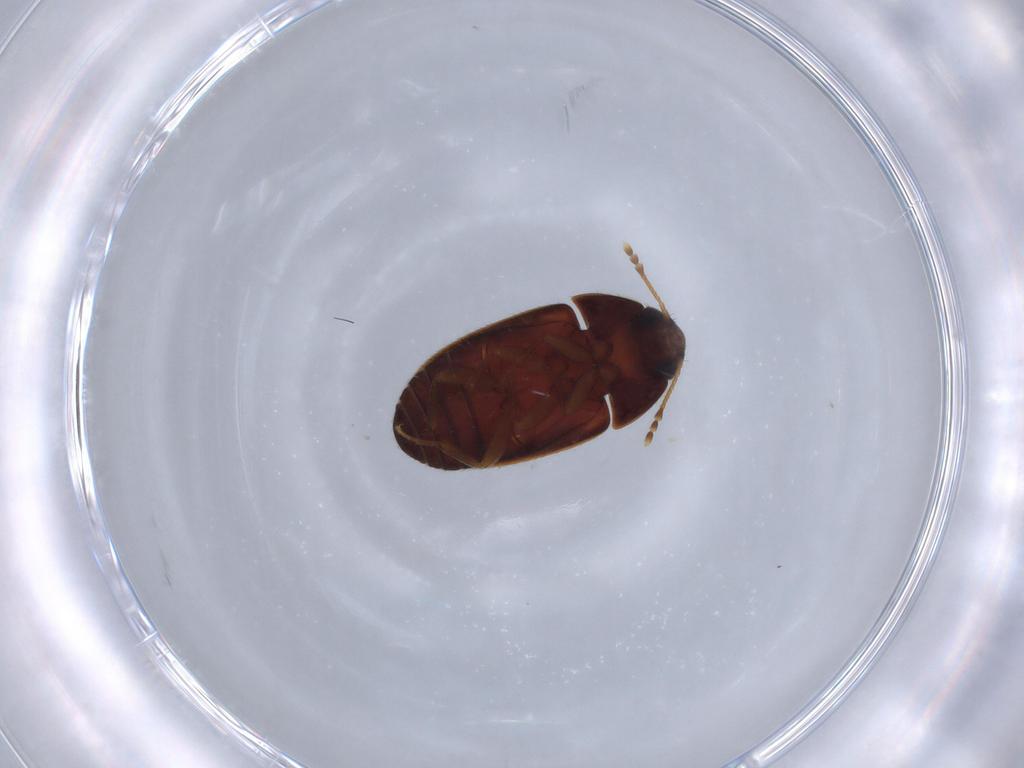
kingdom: Animalia
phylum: Arthropoda
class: Insecta
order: Coleoptera
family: Mycetophagidae
